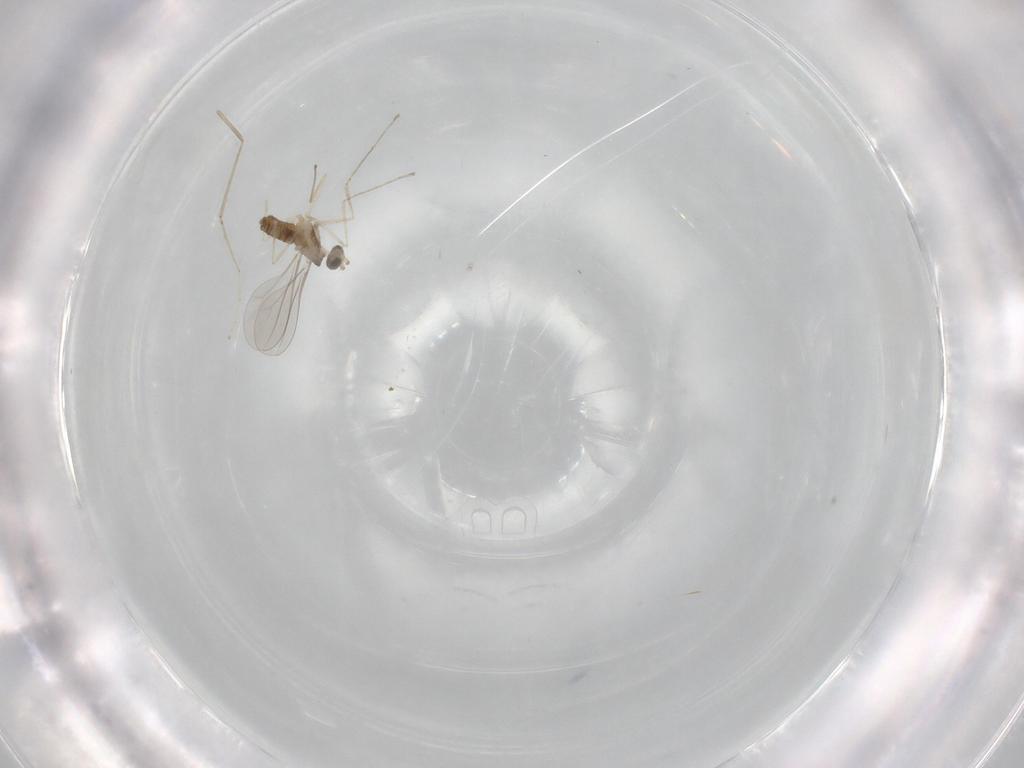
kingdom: Animalia
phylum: Arthropoda
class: Insecta
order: Diptera
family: Cecidomyiidae
